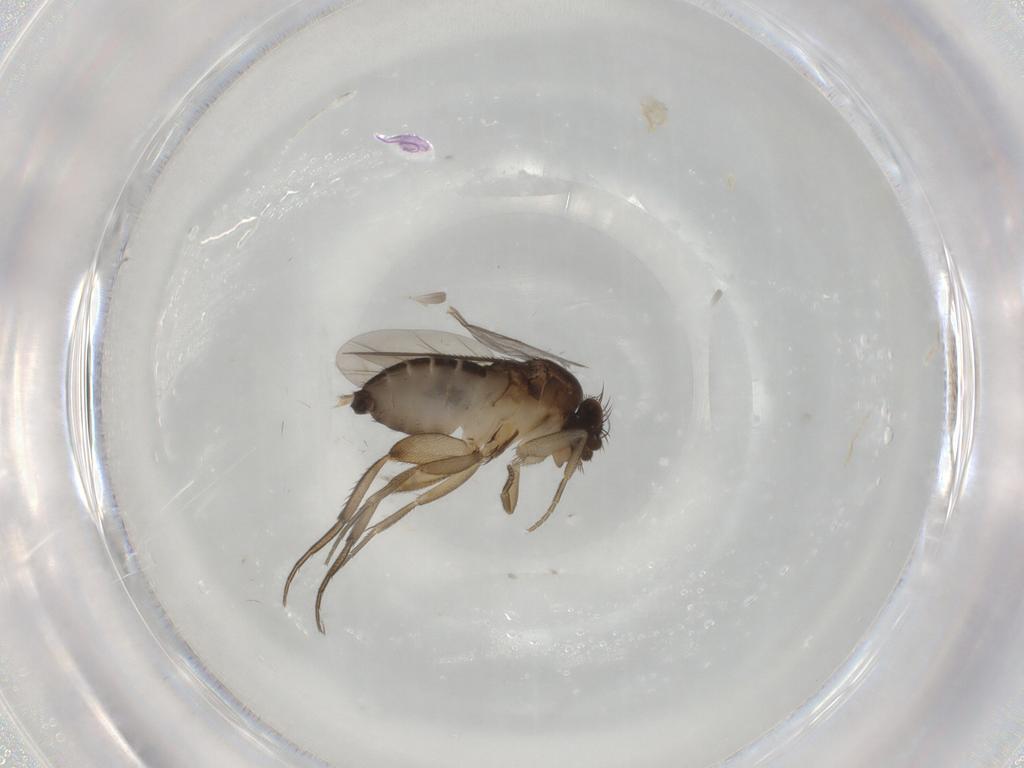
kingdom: Animalia
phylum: Arthropoda
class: Insecta
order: Diptera
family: Phoridae
